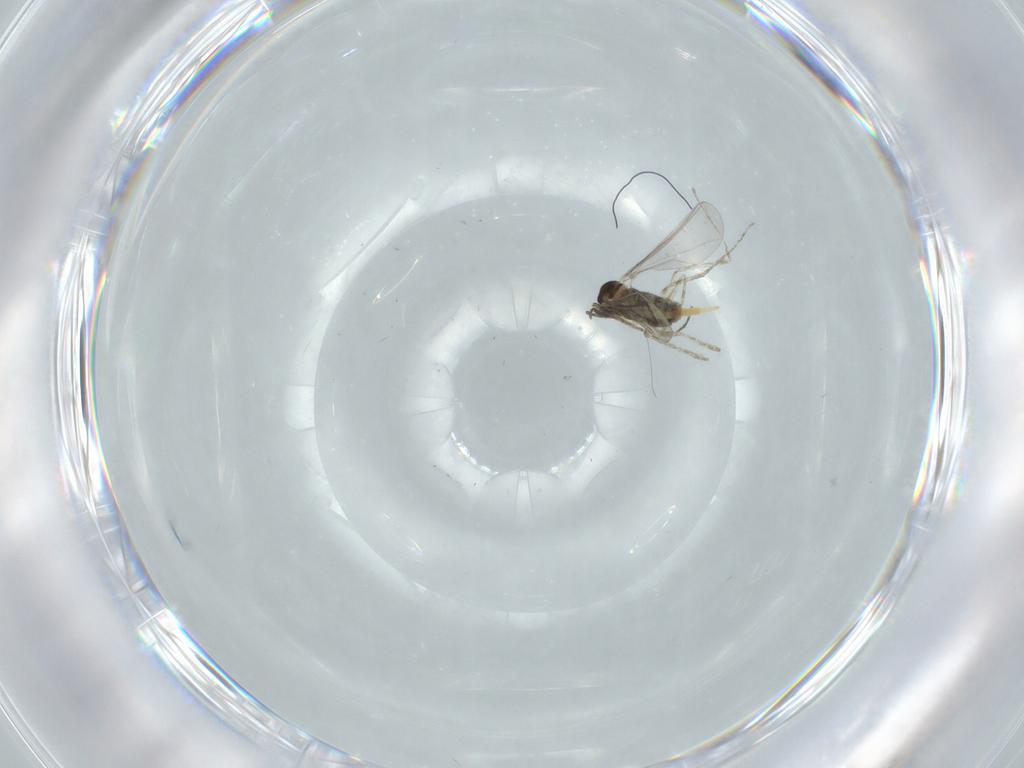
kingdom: Animalia
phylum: Arthropoda
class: Insecta
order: Diptera
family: Cecidomyiidae
